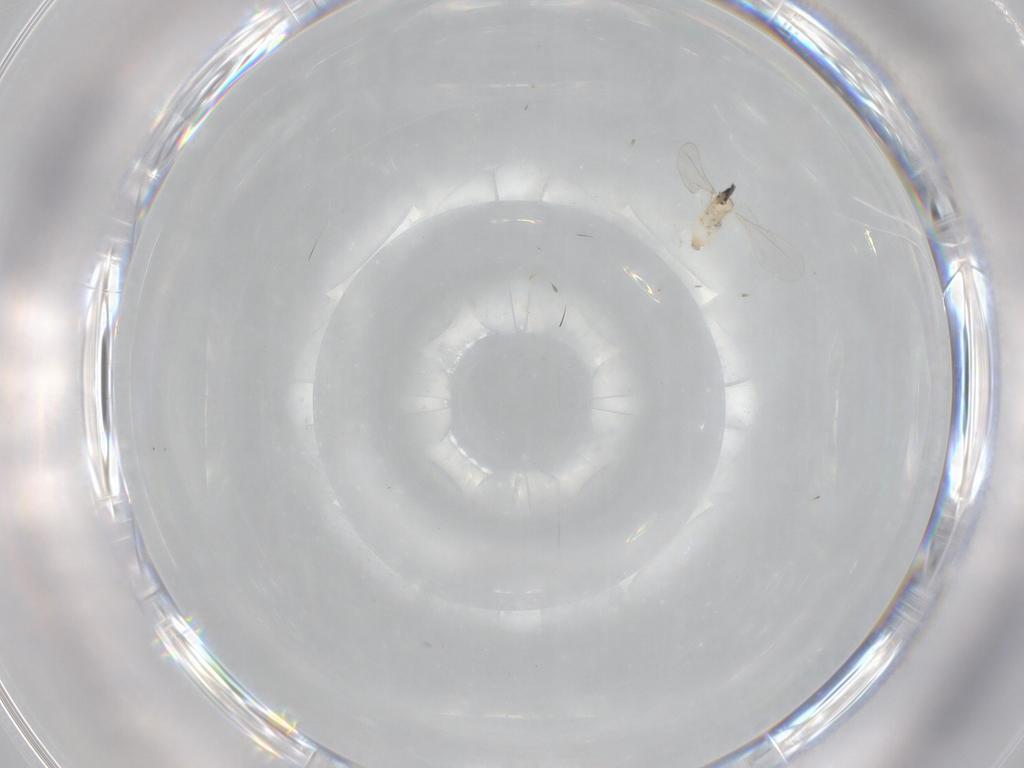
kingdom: Animalia
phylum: Arthropoda
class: Insecta
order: Diptera
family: Cecidomyiidae
